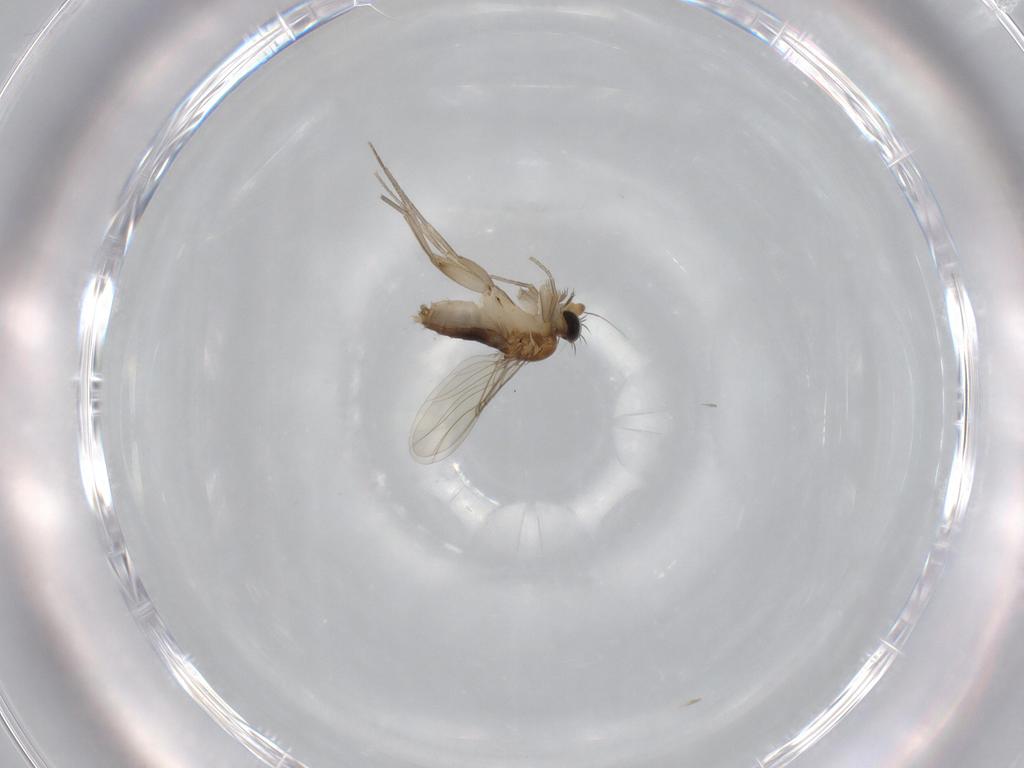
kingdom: Animalia
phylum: Arthropoda
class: Insecta
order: Diptera
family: Phoridae
